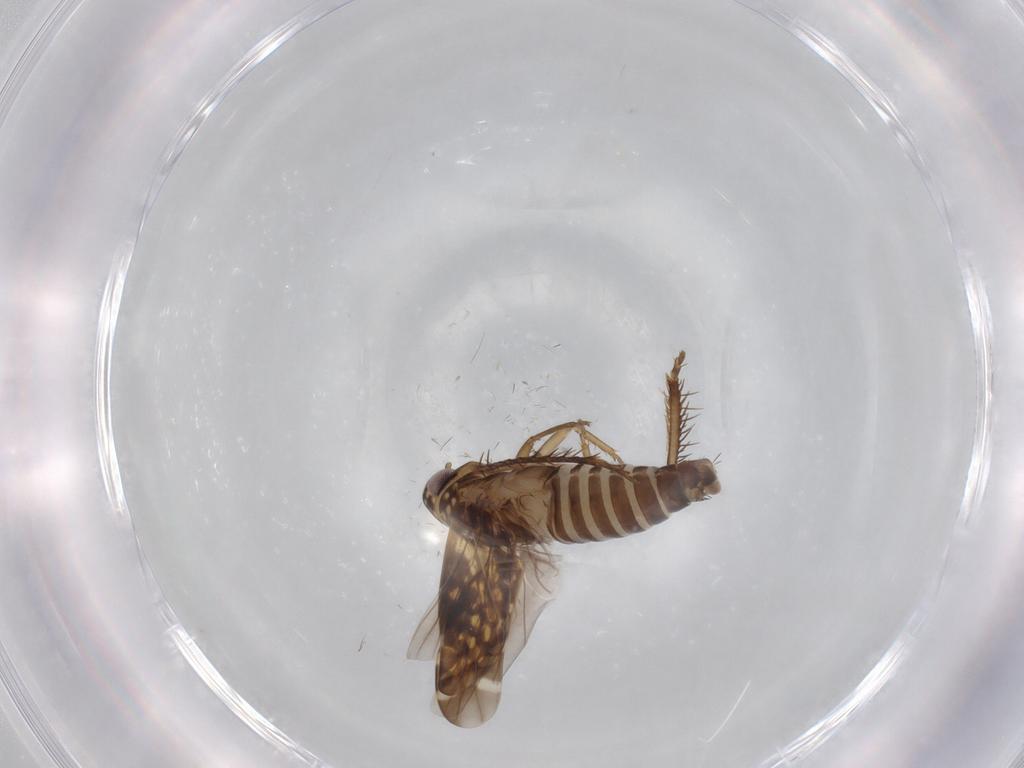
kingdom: Animalia
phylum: Arthropoda
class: Insecta
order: Hemiptera
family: Cicadellidae
